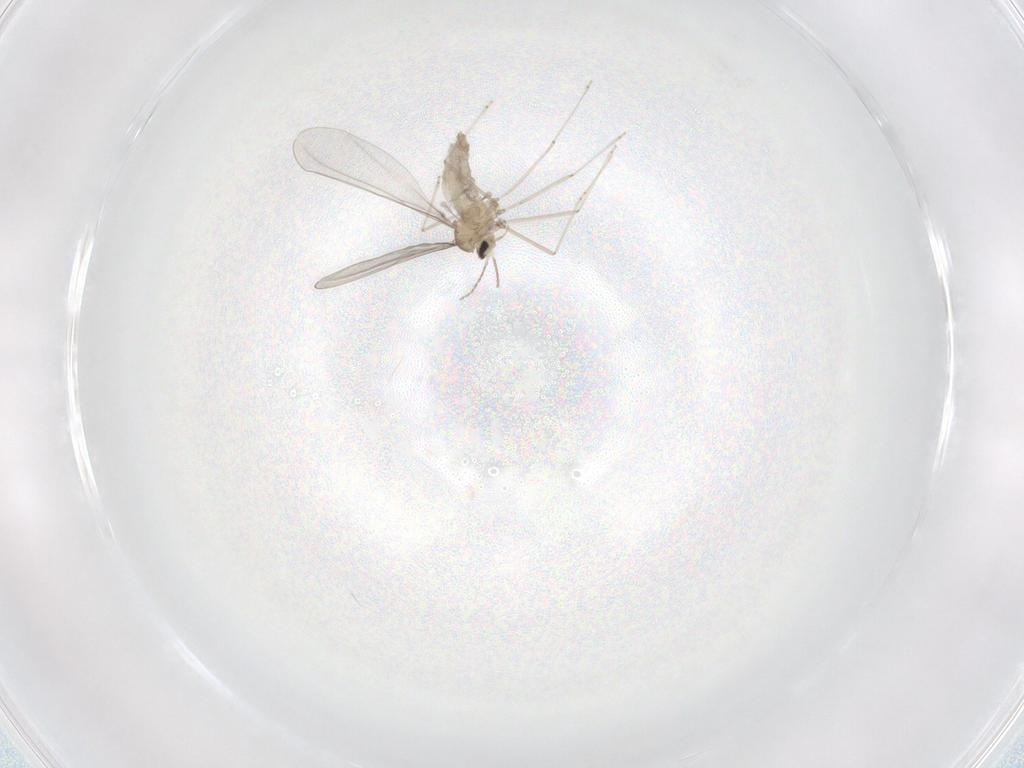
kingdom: Animalia
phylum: Arthropoda
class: Insecta
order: Diptera
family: Cecidomyiidae
